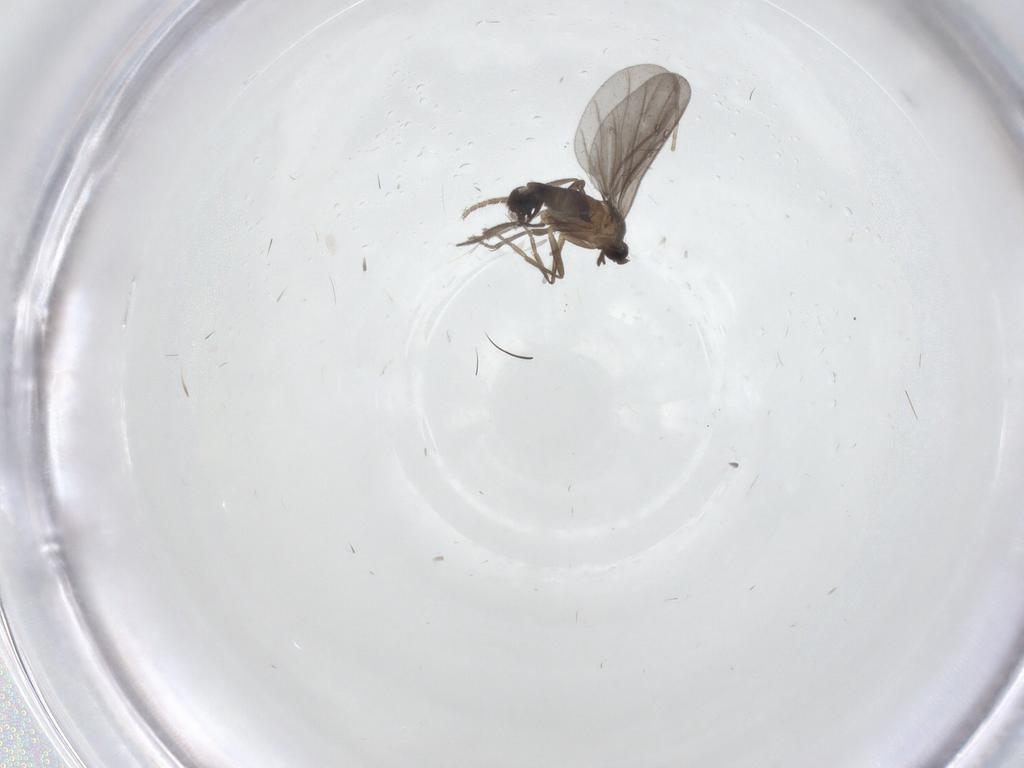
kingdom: Animalia
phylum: Arthropoda
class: Insecta
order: Diptera
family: Phoridae
